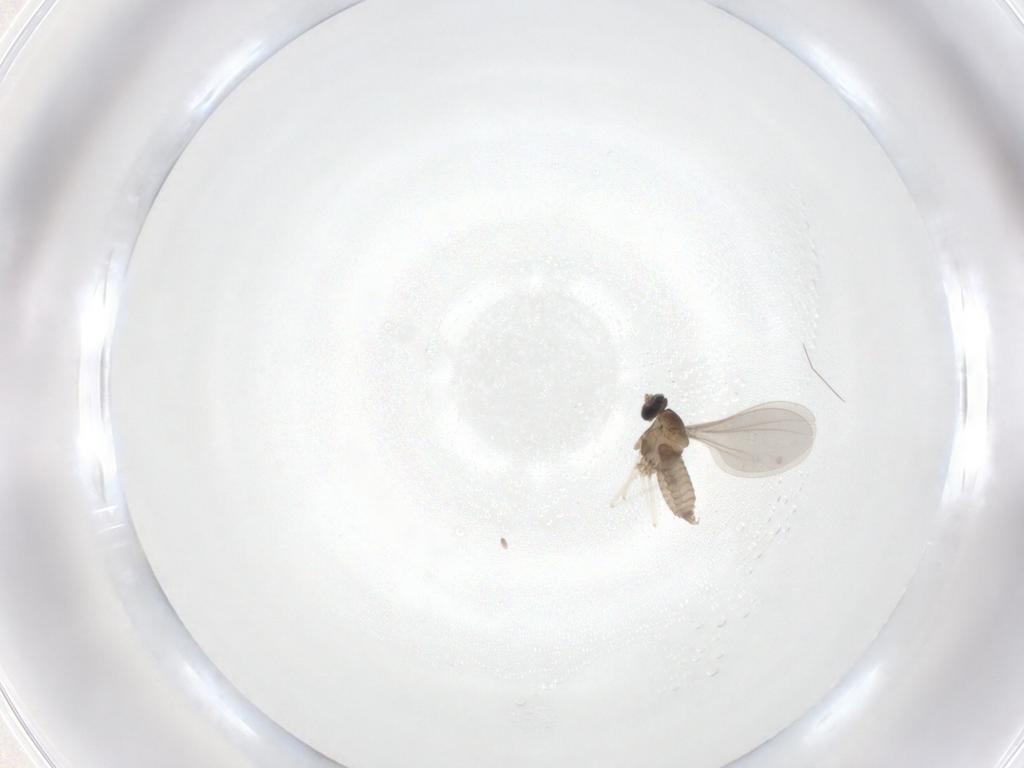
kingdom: Animalia
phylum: Arthropoda
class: Insecta
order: Diptera
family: Cecidomyiidae
